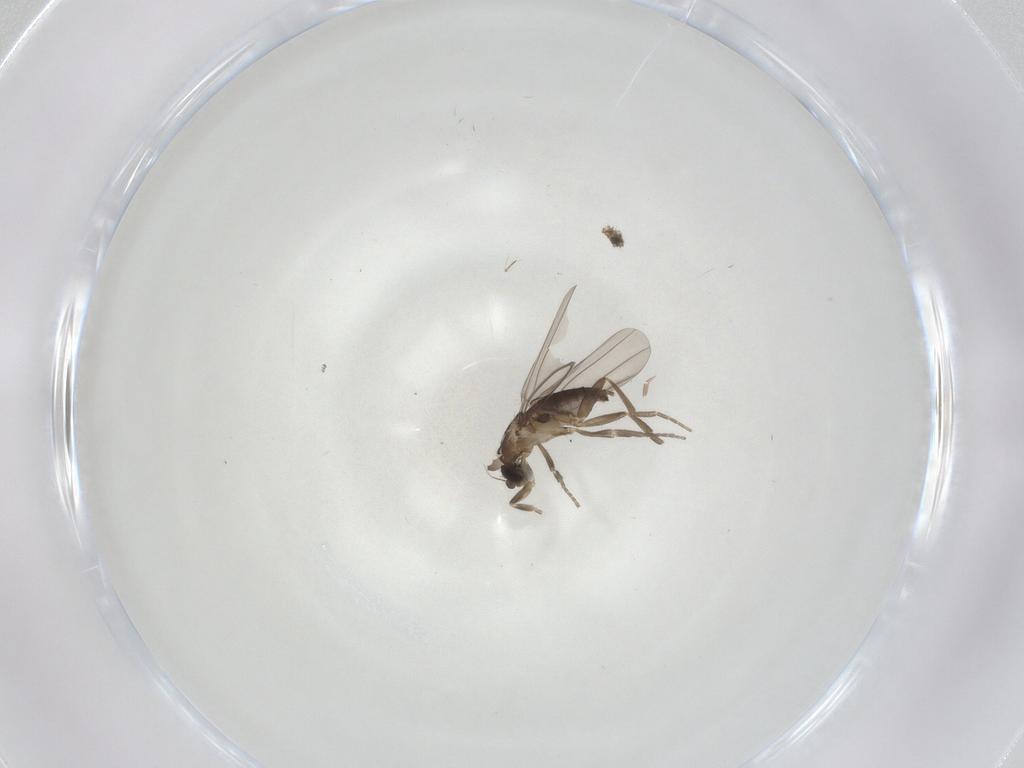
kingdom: Animalia
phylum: Arthropoda
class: Insecta
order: Diptera
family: Phoridae
